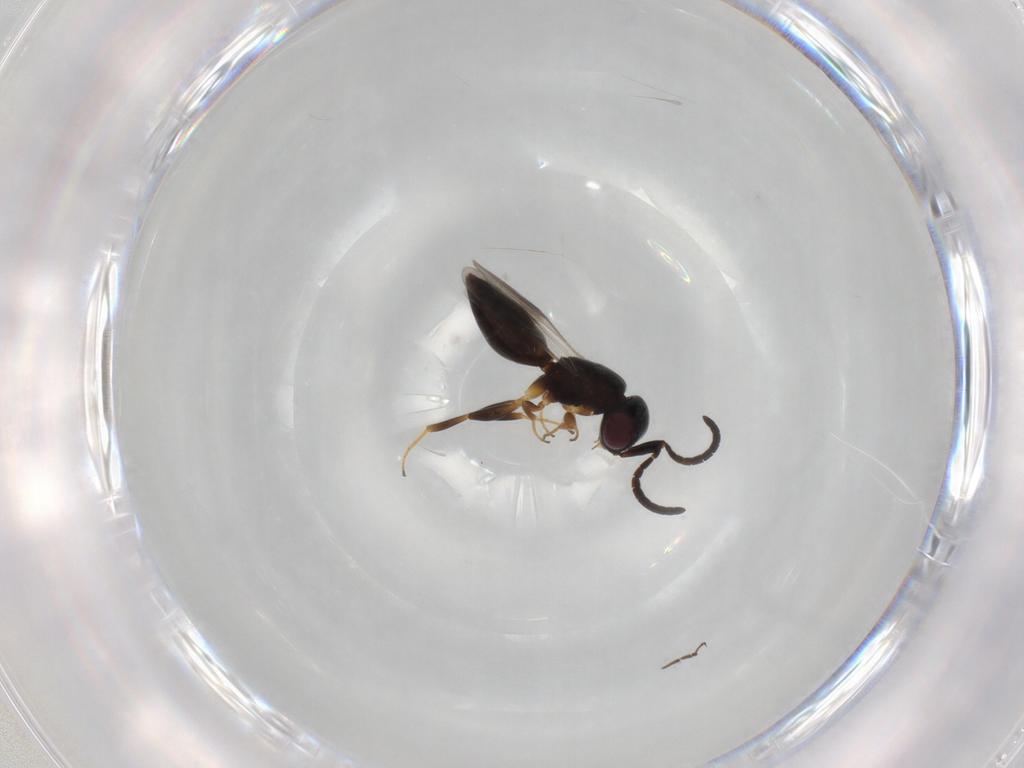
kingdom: Animalia
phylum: Arthropoda
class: Insecta
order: Hymenoptera
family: Megaspilidae
